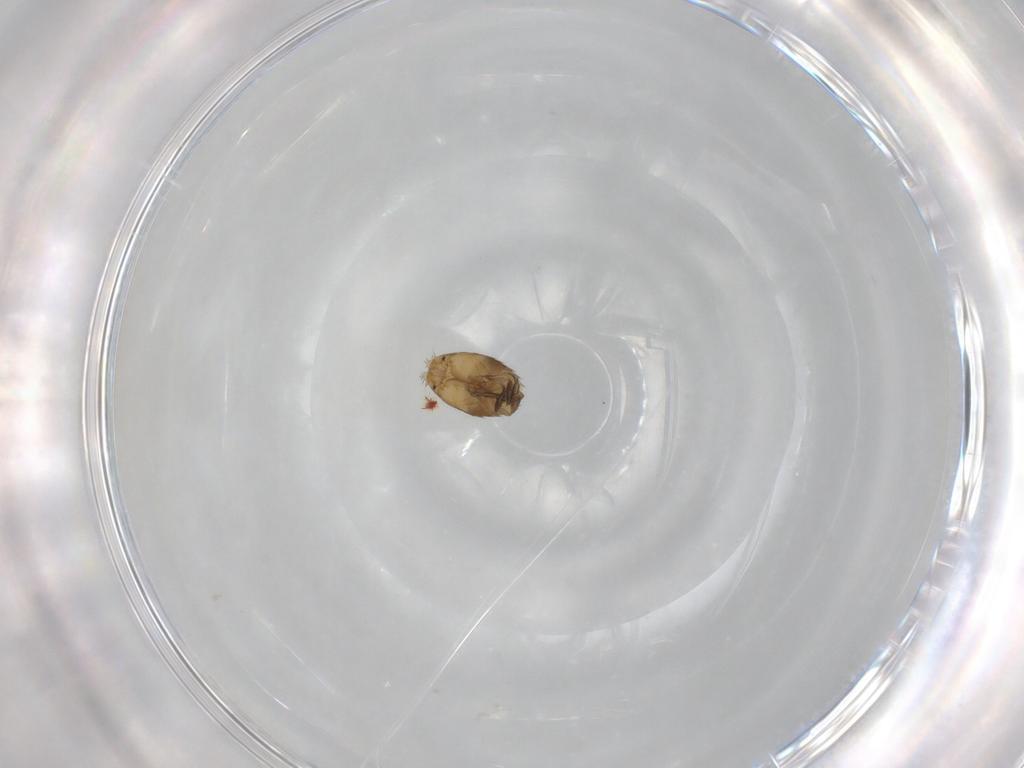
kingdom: Animalia
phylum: Arthropoda
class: Insecta
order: Diptera
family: Phoridae
